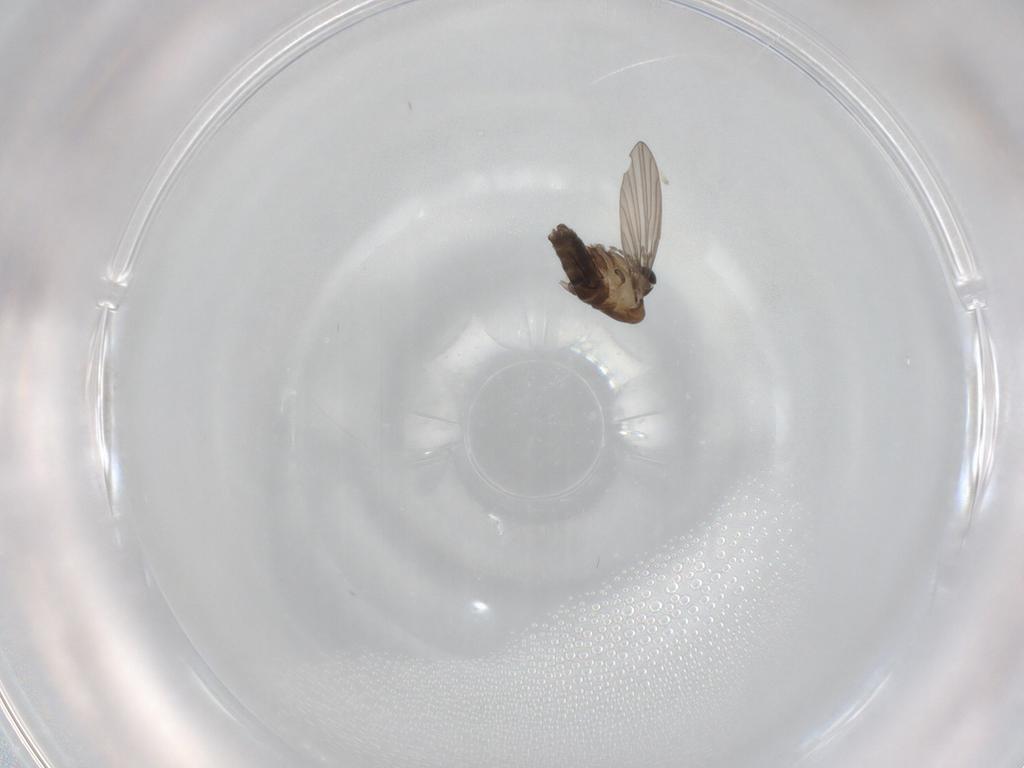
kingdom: Animalia
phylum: Arthropoda
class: Insecta
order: Diptera
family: Psychodidae
